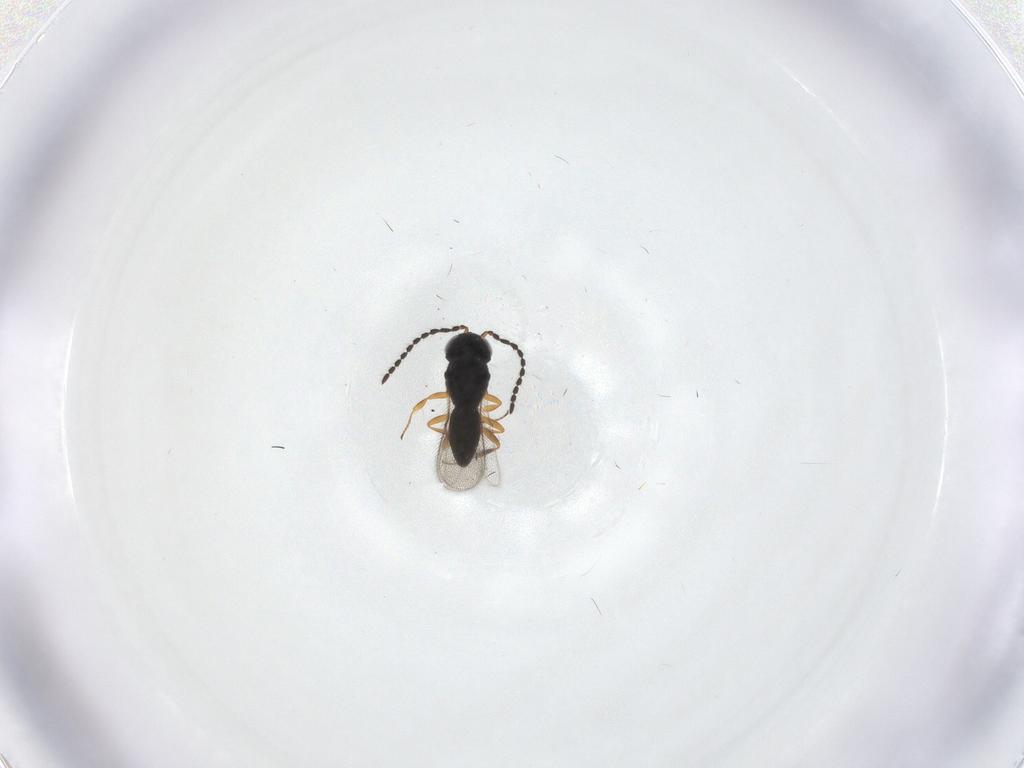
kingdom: Animalia
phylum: Arthropoda
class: Insecta
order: Hymenoptera
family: Scelionidae
